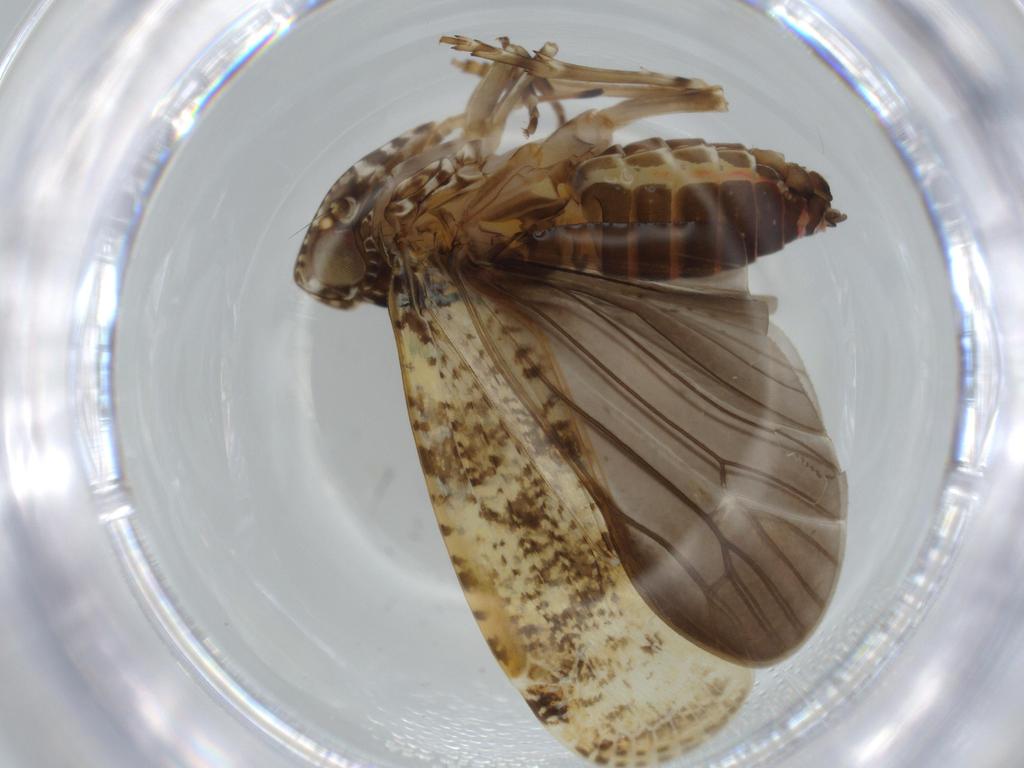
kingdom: Animalia
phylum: Arthropoda
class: Insecta
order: Hemiptera
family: Achilidae
